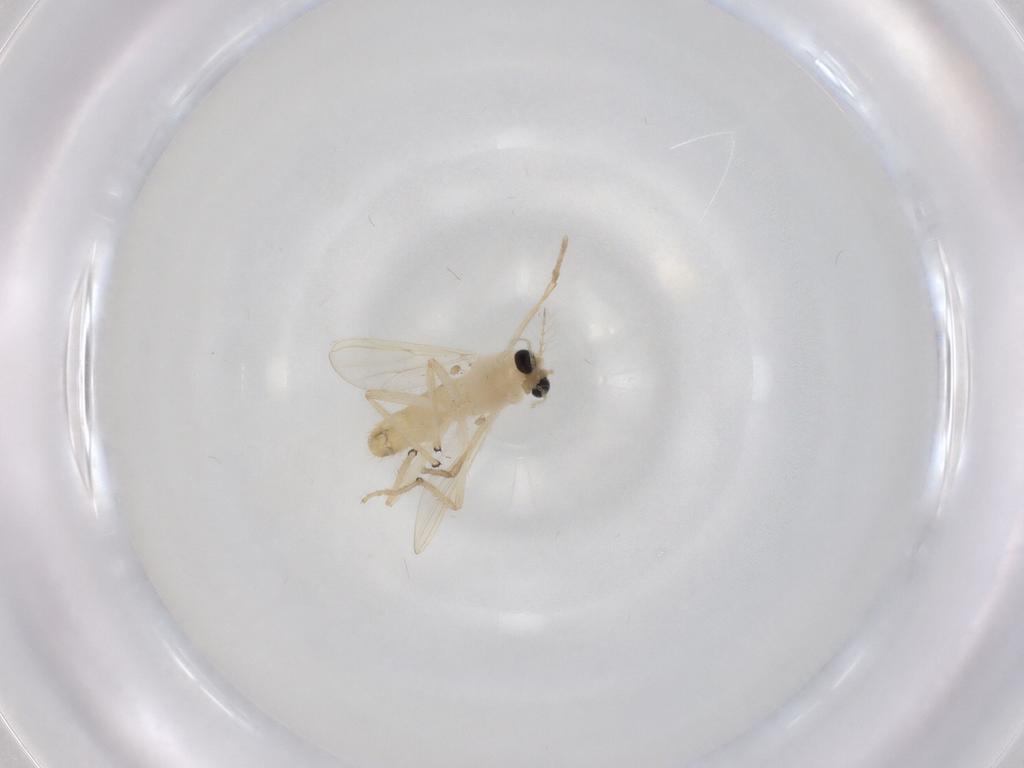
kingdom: Animalia
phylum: Arthropoda
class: Insecta
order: Diptera
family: Chironomidae
